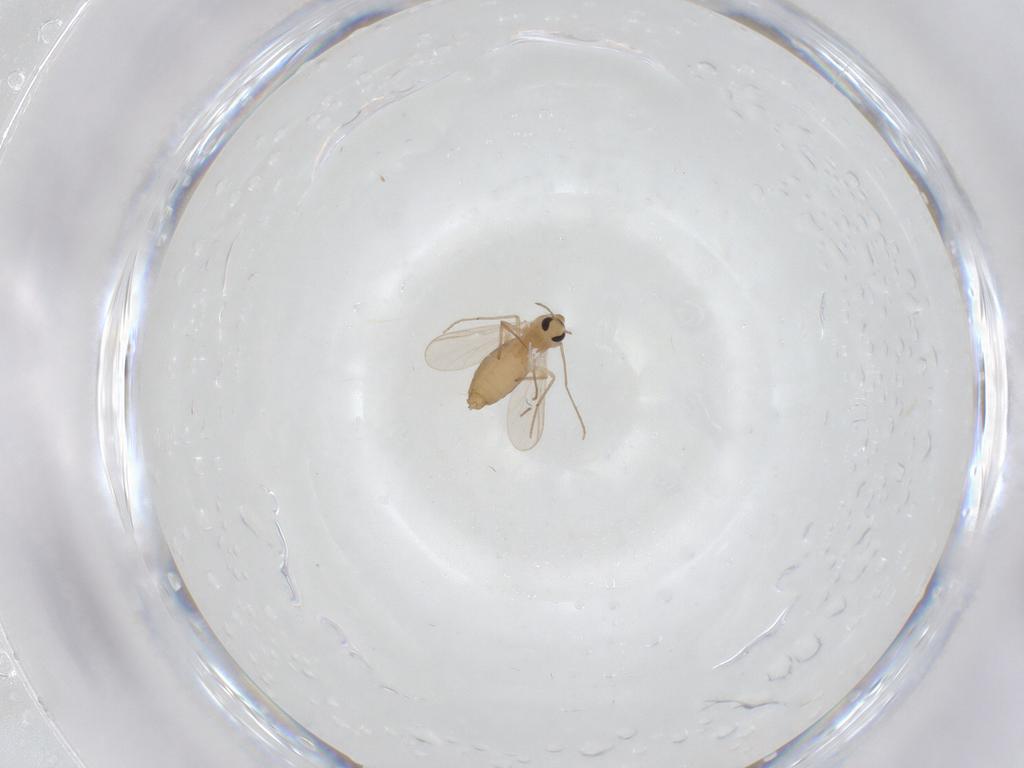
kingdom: Animalia
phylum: Arthropoda
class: Insecta
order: Diptera
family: Chironomidae
